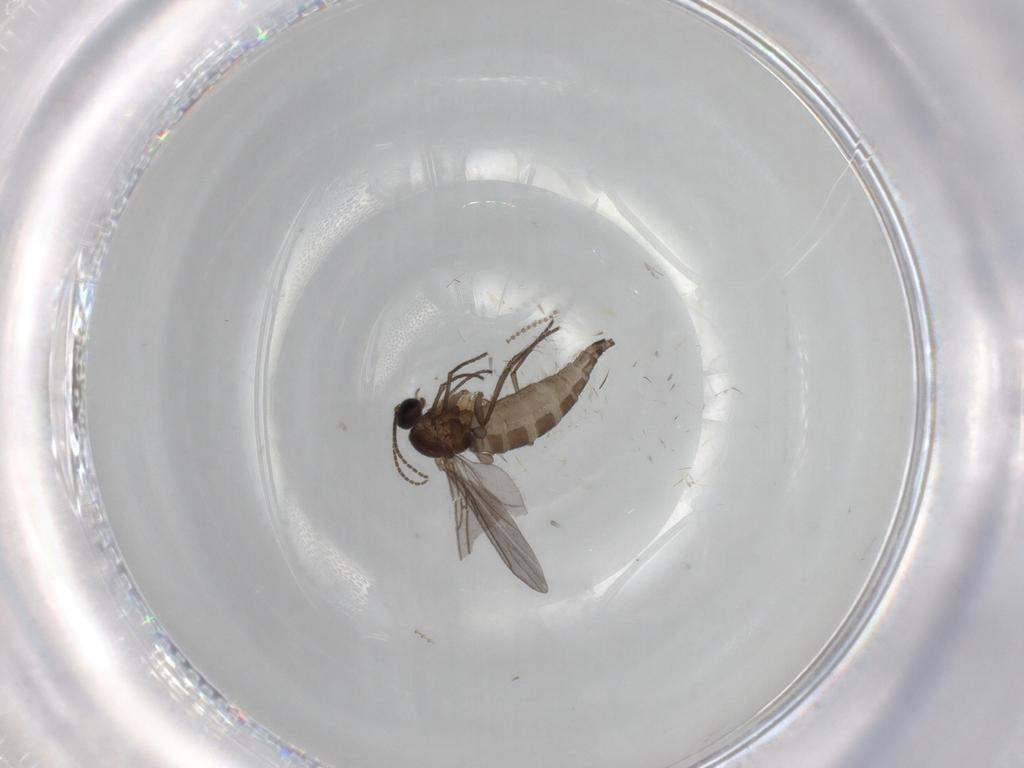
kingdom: Animalia
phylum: Arthropoda
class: Insecta
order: Diptera
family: Sciaridae
